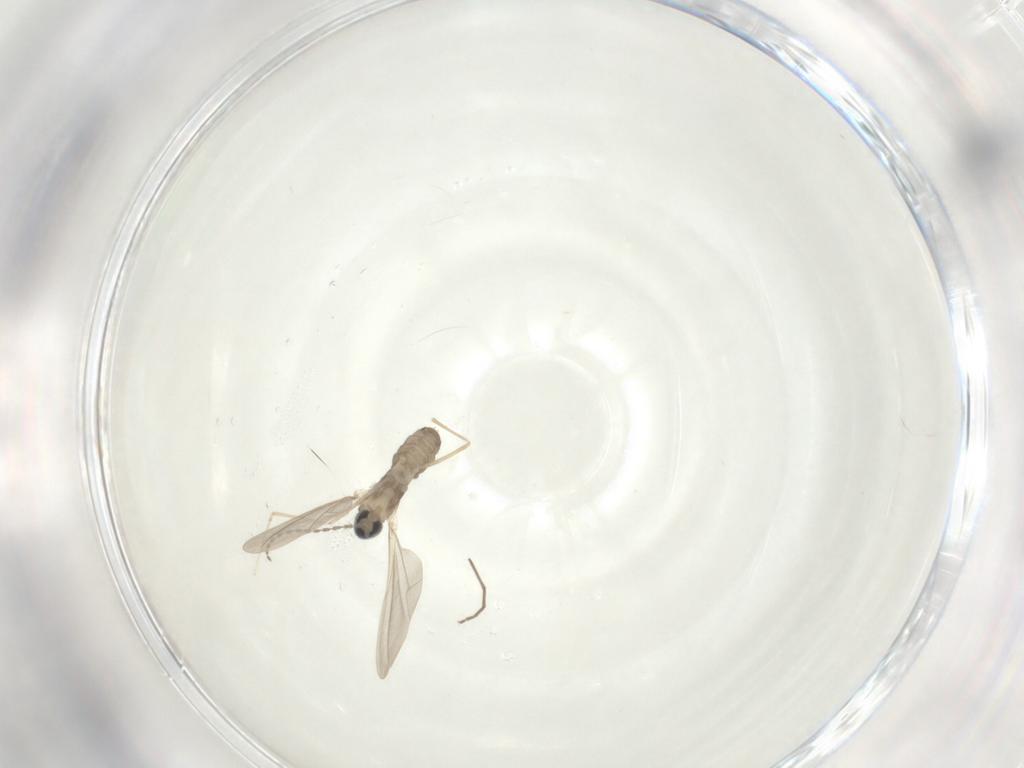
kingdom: Animalia
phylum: Arthropoda
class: Insecta
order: Diptera
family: Cecidomyiidae
